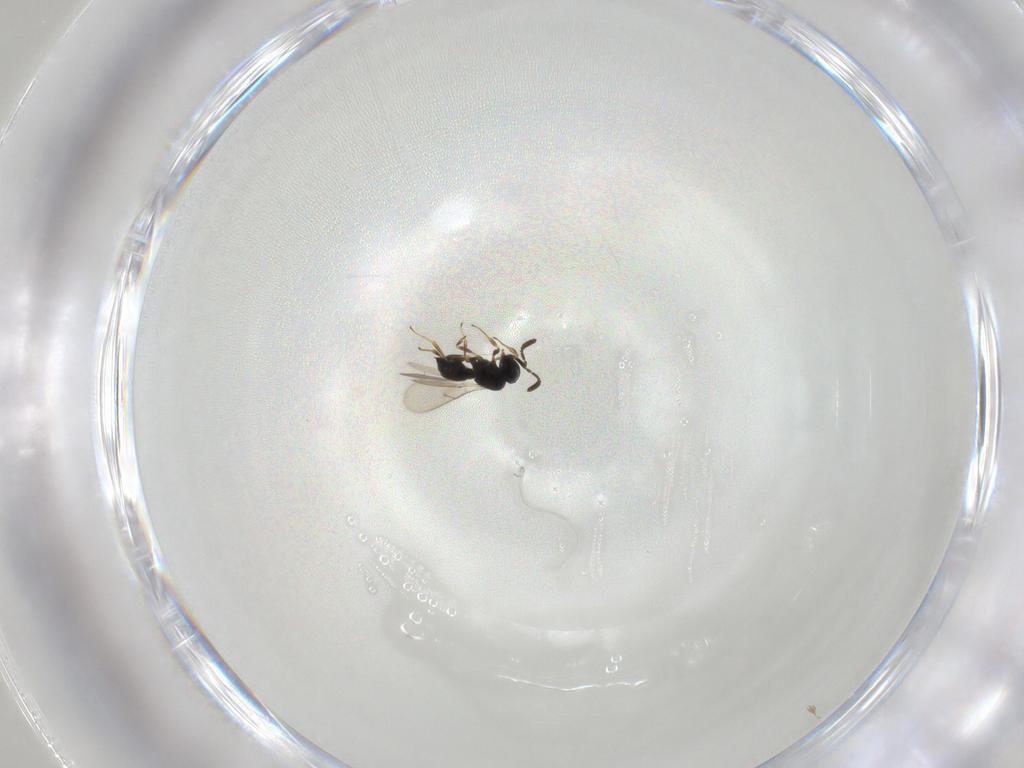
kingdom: Animalia
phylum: Arthropoda
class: Insecta
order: Hymenoptera
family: Scelionidae
